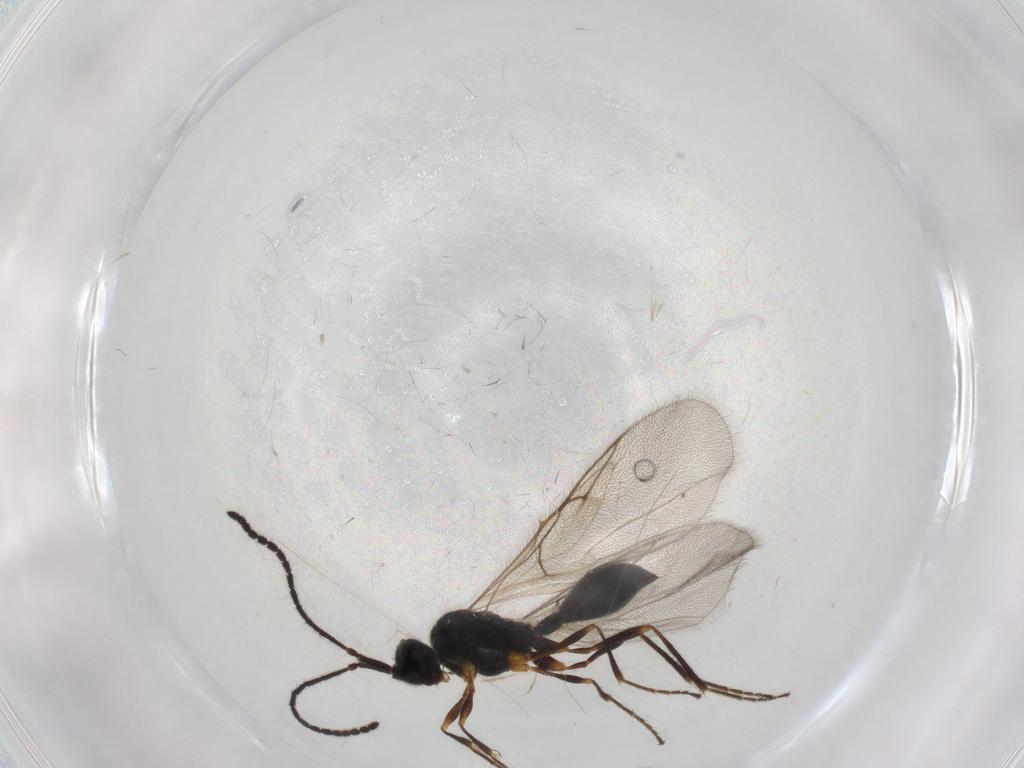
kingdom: Animalia
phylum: Arthropoda
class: Insecta
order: Hymenoptera
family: Diapriidae
